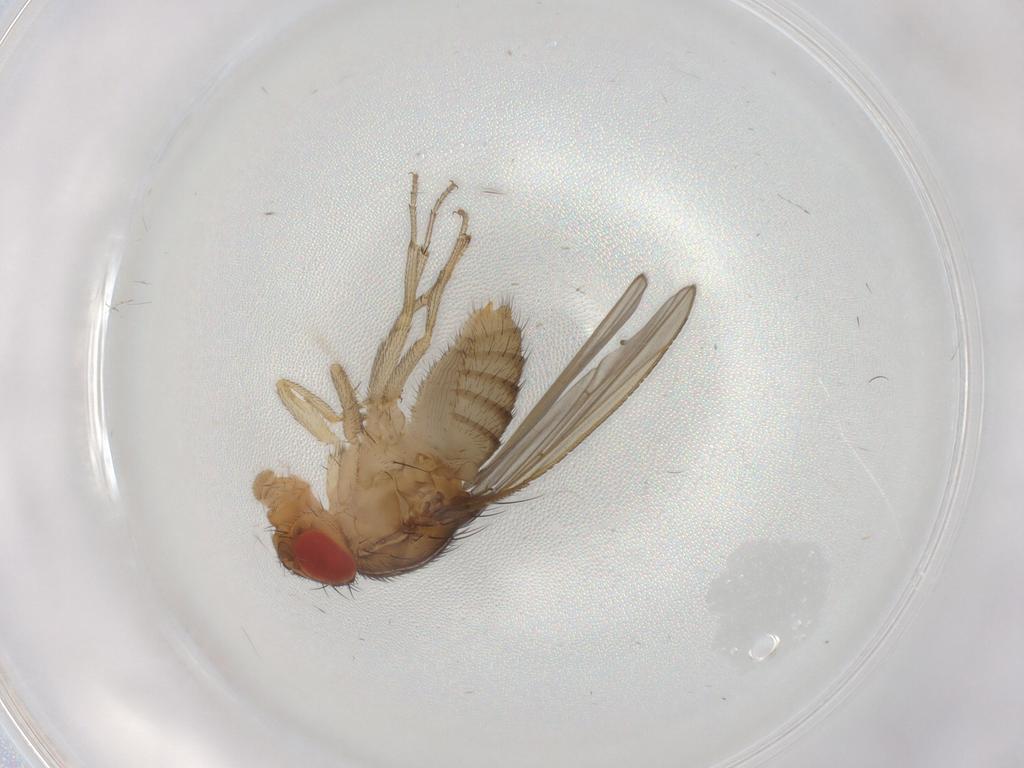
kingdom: Animalia
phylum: Arthropoda
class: Insecta
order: Diptera
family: Drosophilidae
